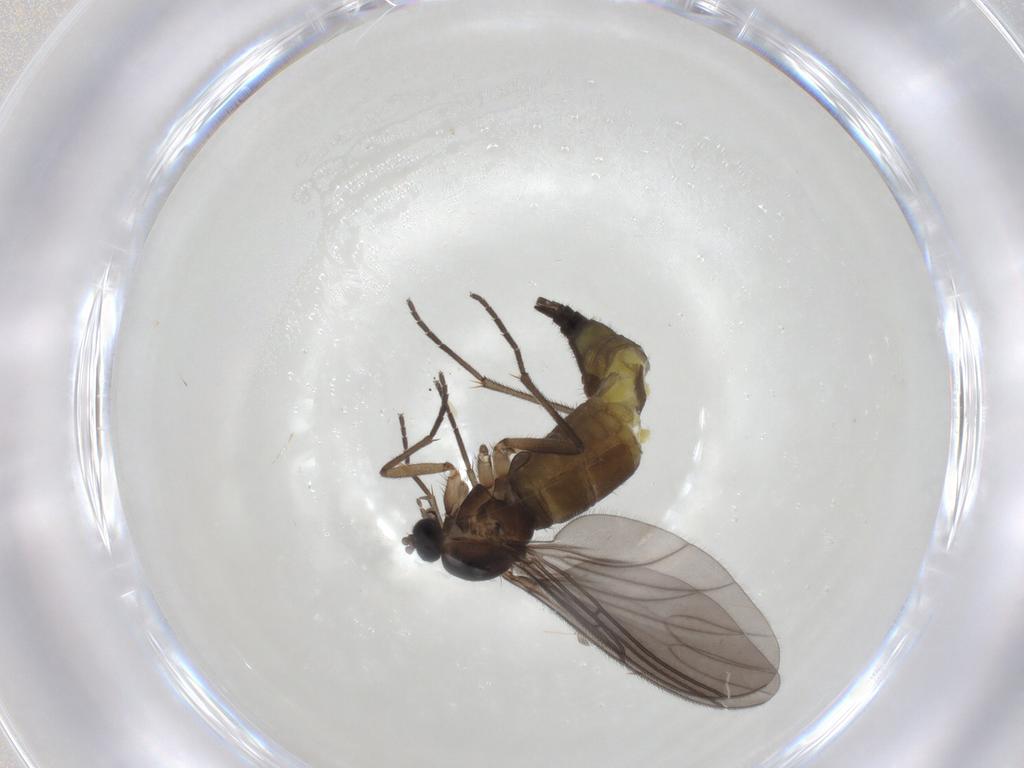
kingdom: Animalia
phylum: Arthropoda
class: Insecta
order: Diptera
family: Sciaridae
